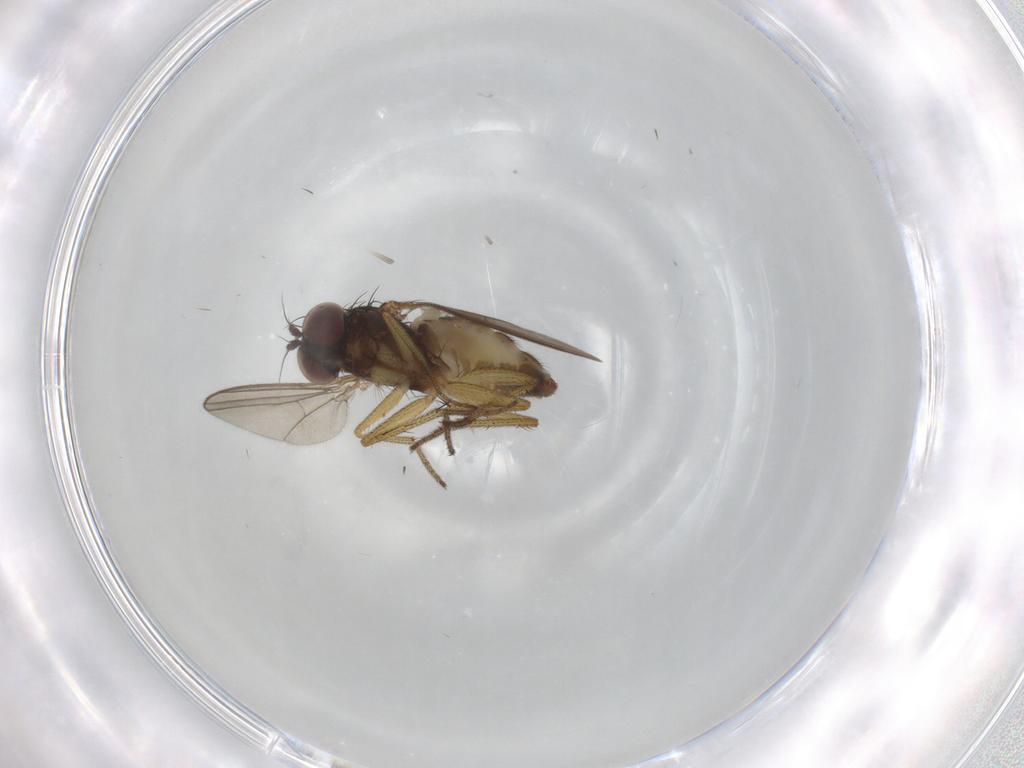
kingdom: Animalia
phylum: Arthropoda
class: Insecta
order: Diptera
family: Dolichopodidae
